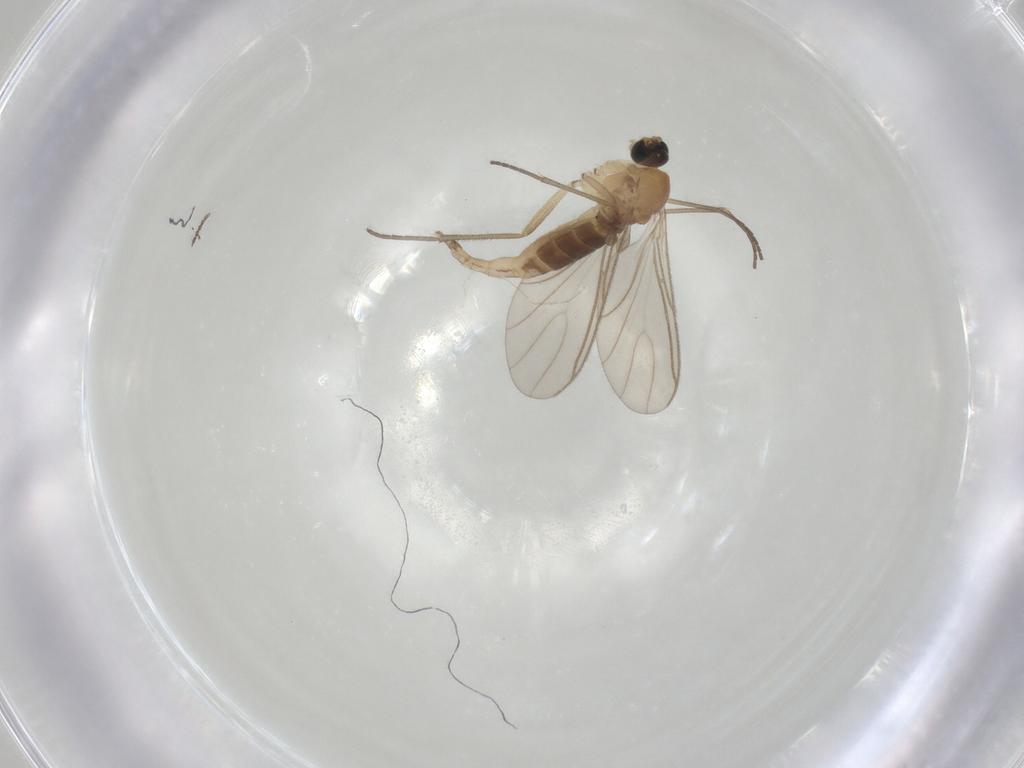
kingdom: Animalia
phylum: Arthropoda
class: Insecta
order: Diptera
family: Sciaridae
